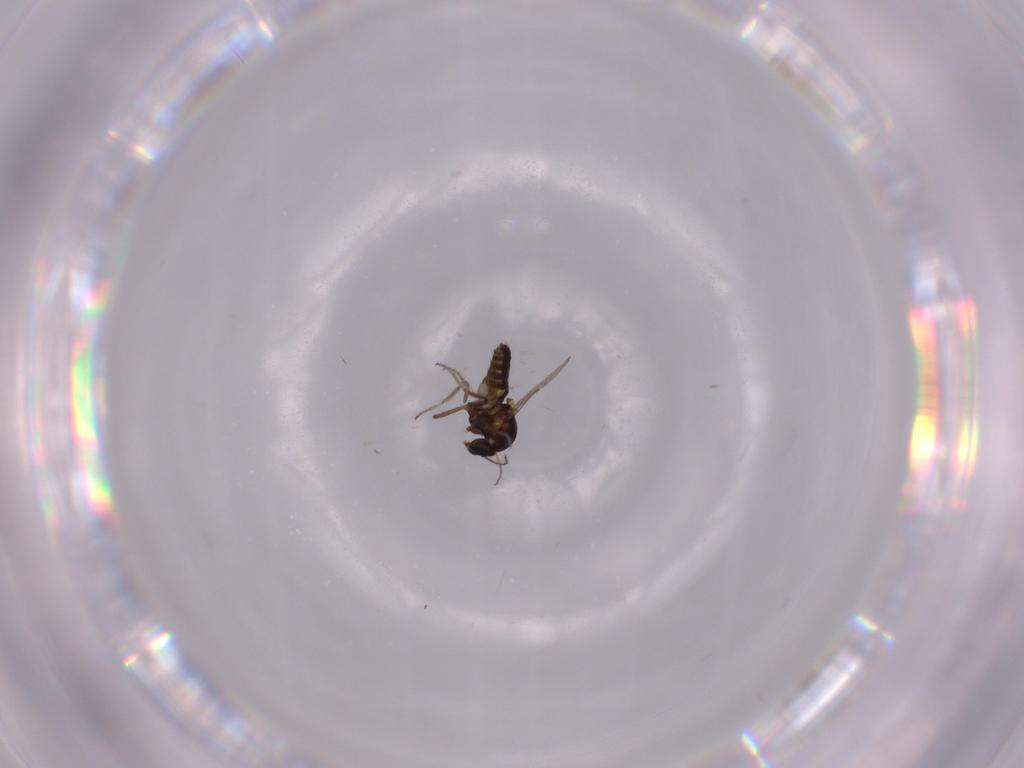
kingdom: Animalia
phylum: Arthropoda
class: Insecta
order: Diptera
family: Ceratopogonidae
